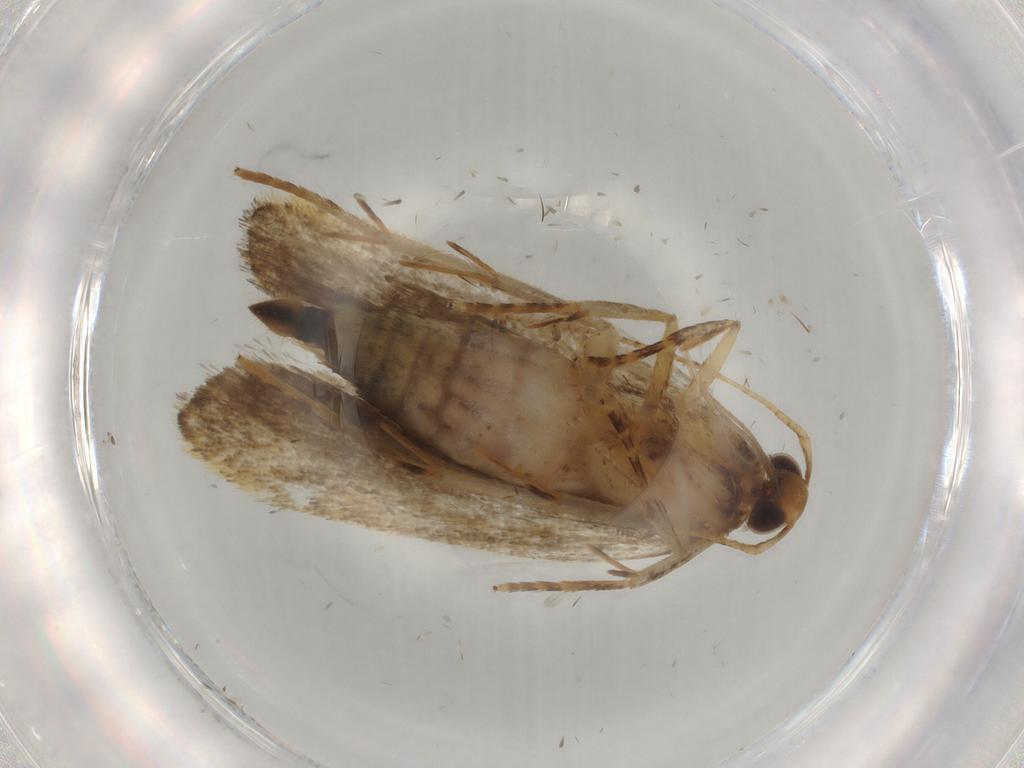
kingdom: Animalia
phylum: Arthropoda
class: Insecta
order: Lepidoptera
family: Autostichidae
